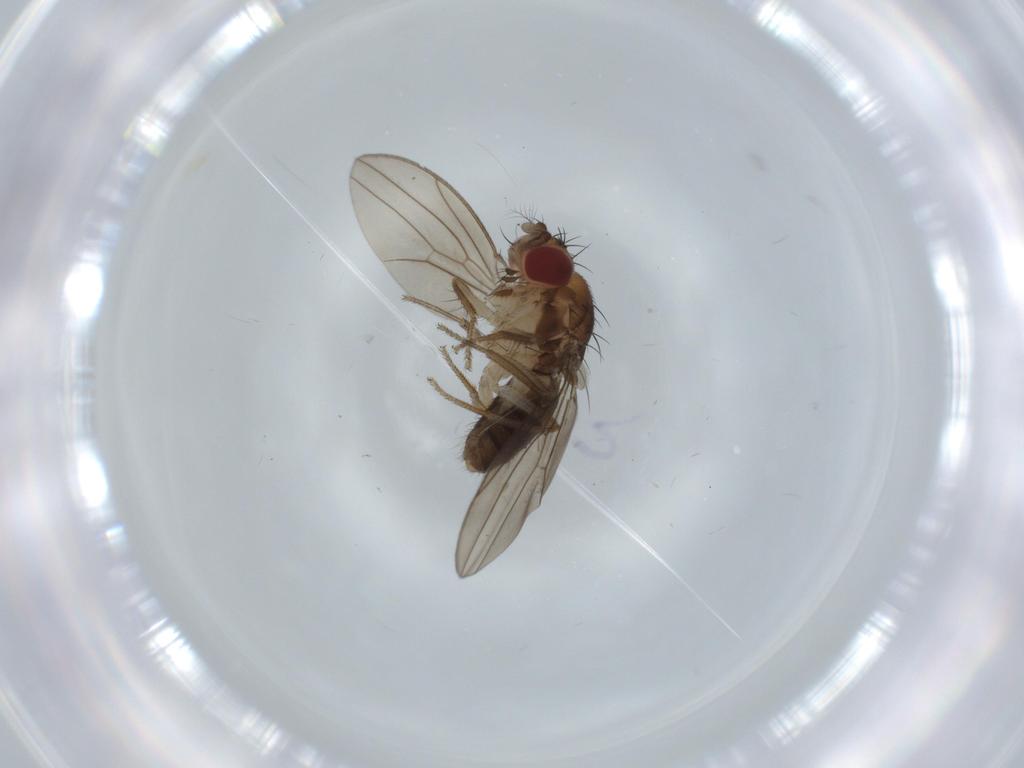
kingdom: Animalia
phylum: Arthropoda
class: Insecta
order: Diptera
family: Drosophilidae
